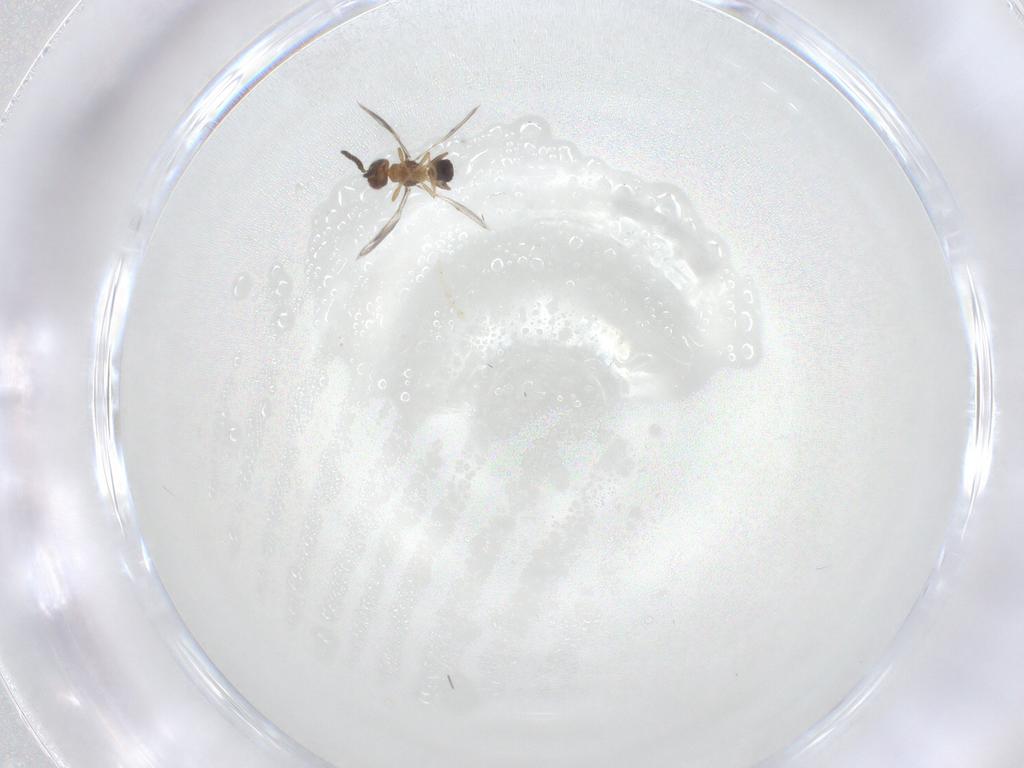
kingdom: Animalia
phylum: Arthropoda
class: Insecta
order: Hymenoptera
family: Pteromalidae
